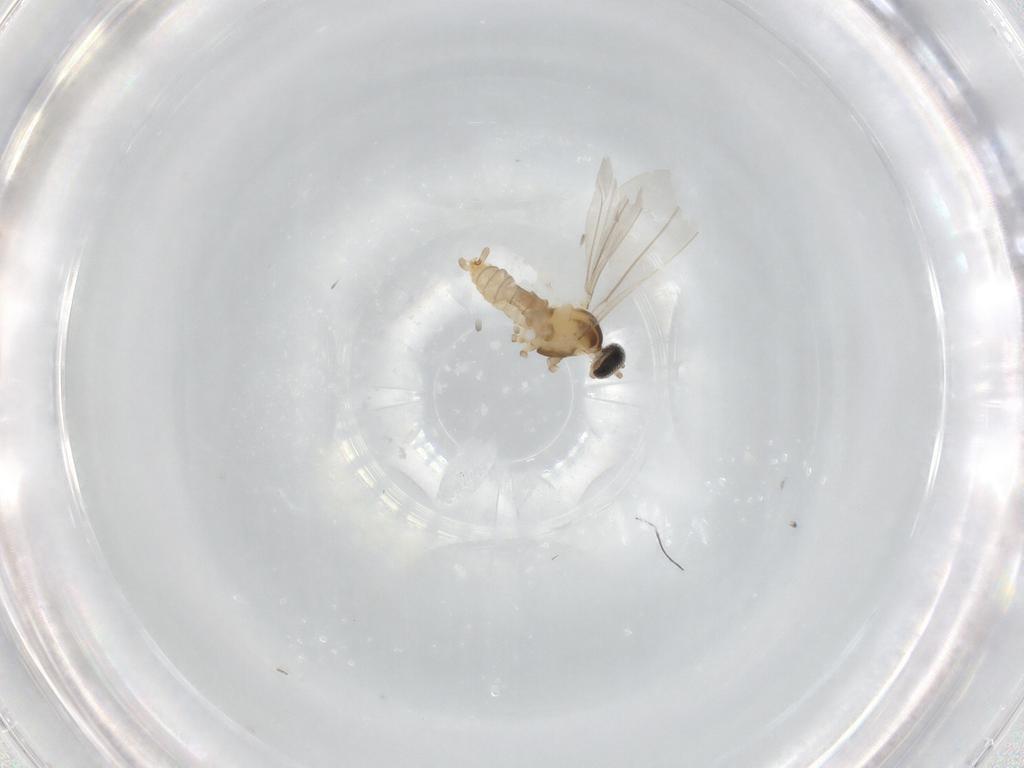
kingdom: Animalia
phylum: Arthropoda
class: Insecta
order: Diptera
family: Cecidomyiidae
